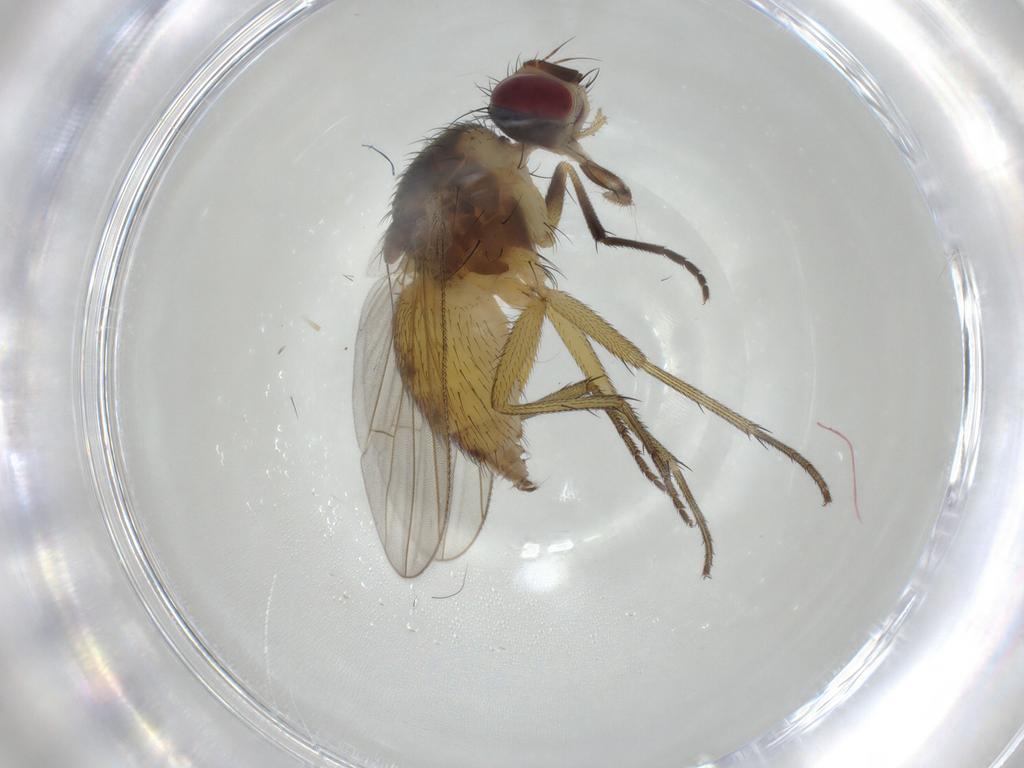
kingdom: Animalia
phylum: Arthropoda
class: Insecta
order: Diptera
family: Muscidae
